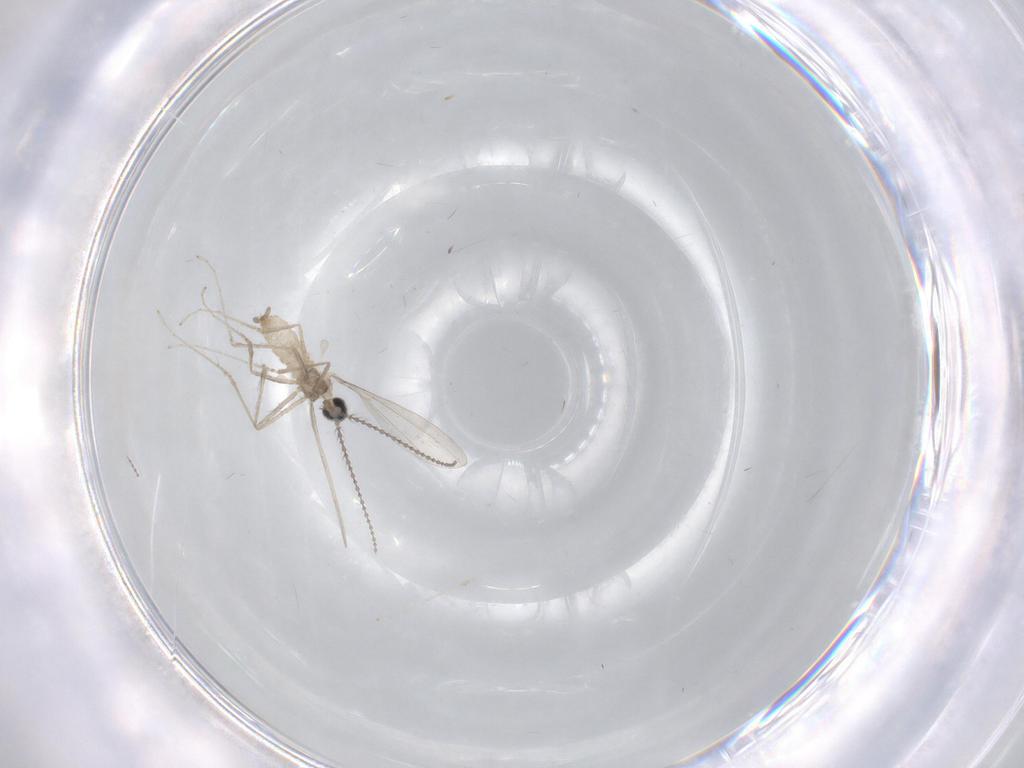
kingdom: Animalia
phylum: Arthropoda
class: Insecta
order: Diptera
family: Cecidomyiidae
